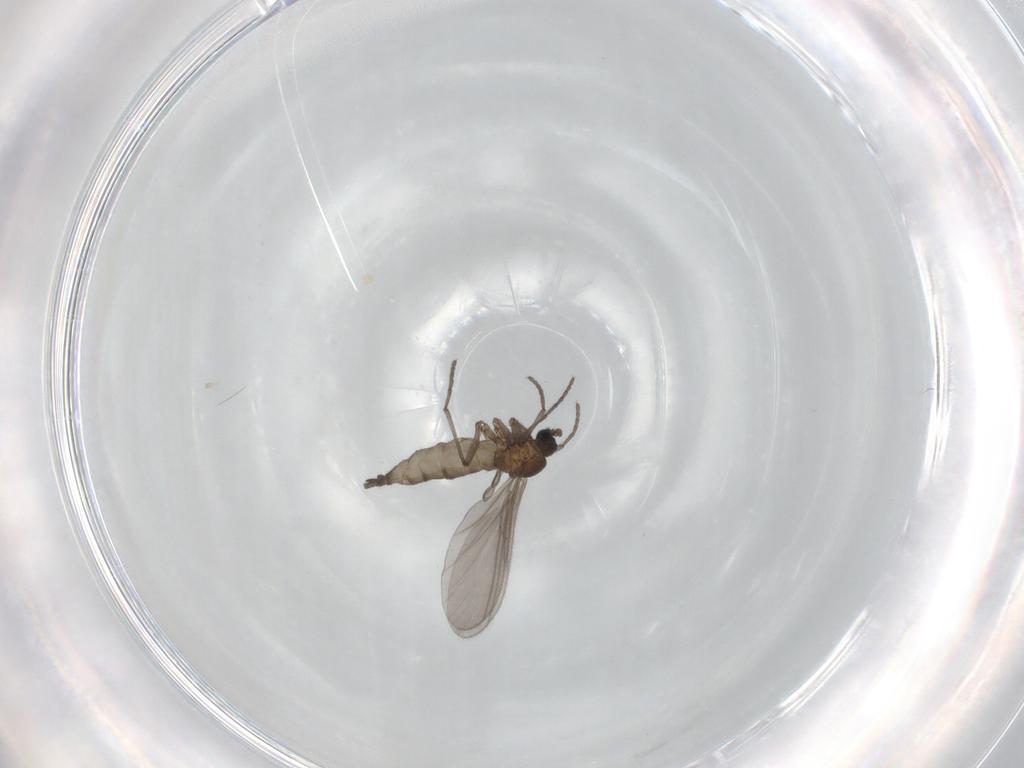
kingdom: Animalia
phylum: Arthropoda
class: Insecta
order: Diptera
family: Sciaridae
